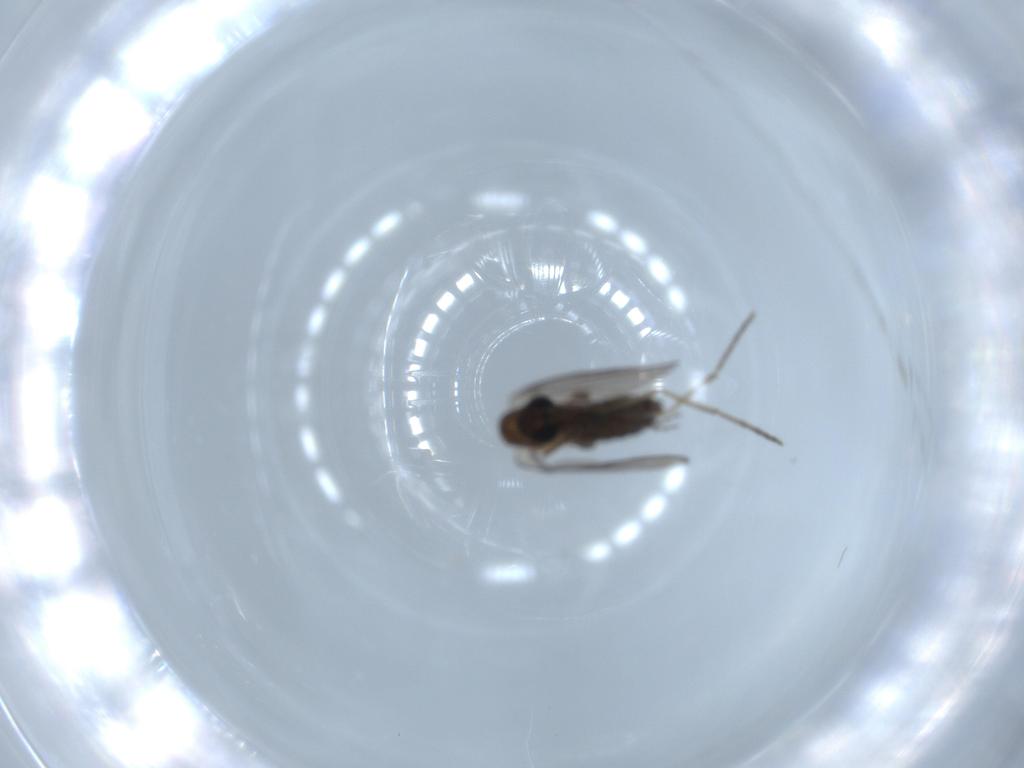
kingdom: Animalia
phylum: Arthropoda
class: Insecta
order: Diptera
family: Psychodidae
